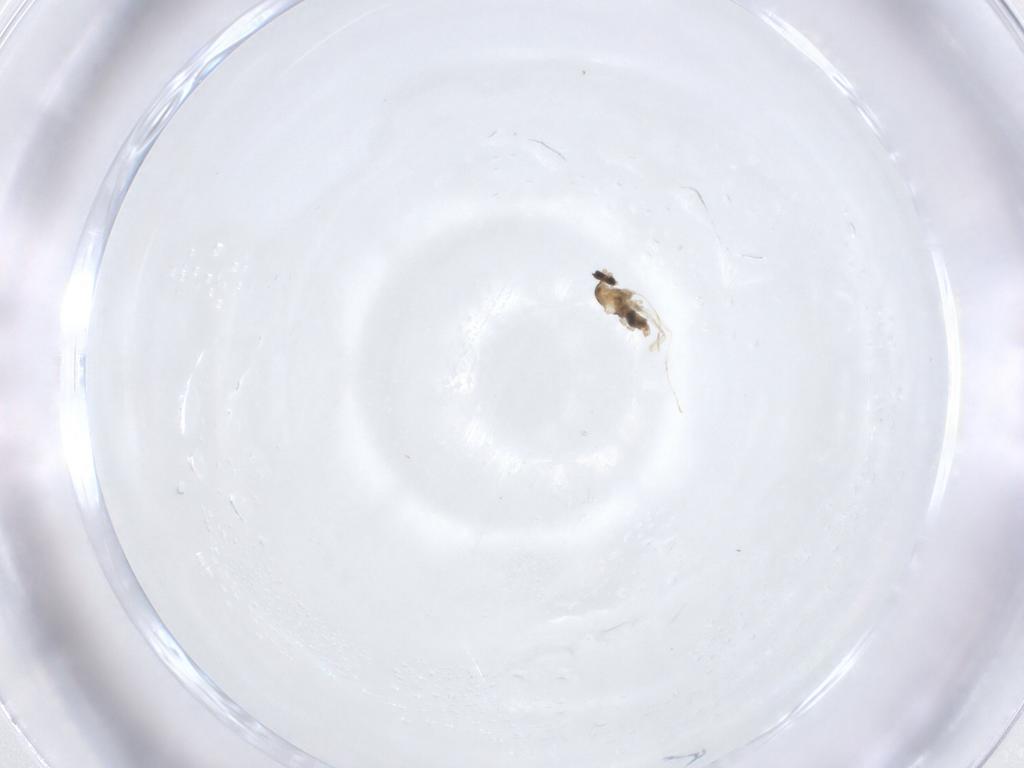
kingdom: Animalia
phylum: Arthropoda
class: Insecta
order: Diptera
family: Cecidomyiidae
